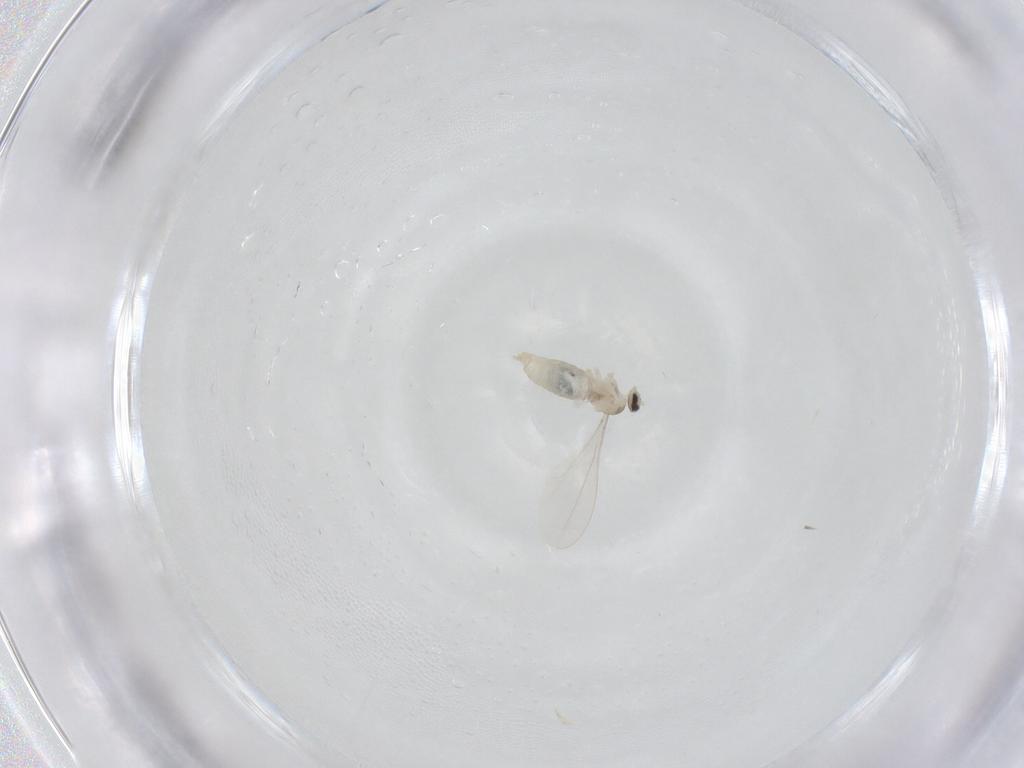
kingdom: Animalia
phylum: Arthropoda
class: Insecta
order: Diptera
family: Cecidomyiidae
